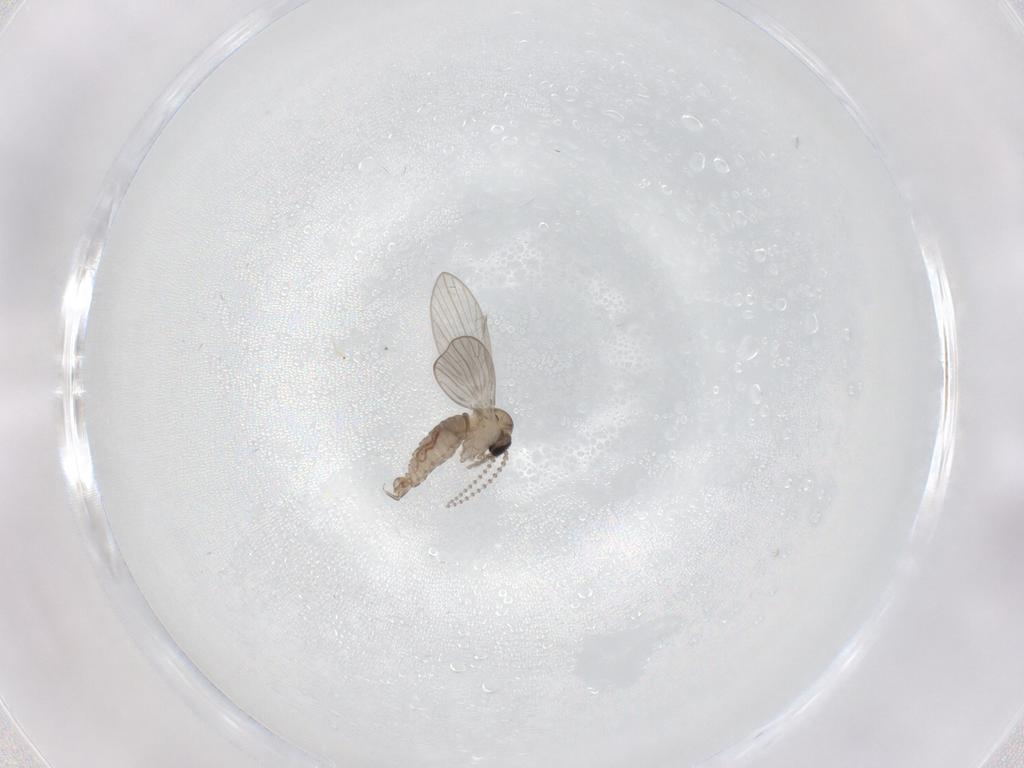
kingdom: Animalia
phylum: Arthropoda
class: Insecta
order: Diptera
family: Psychodidae
